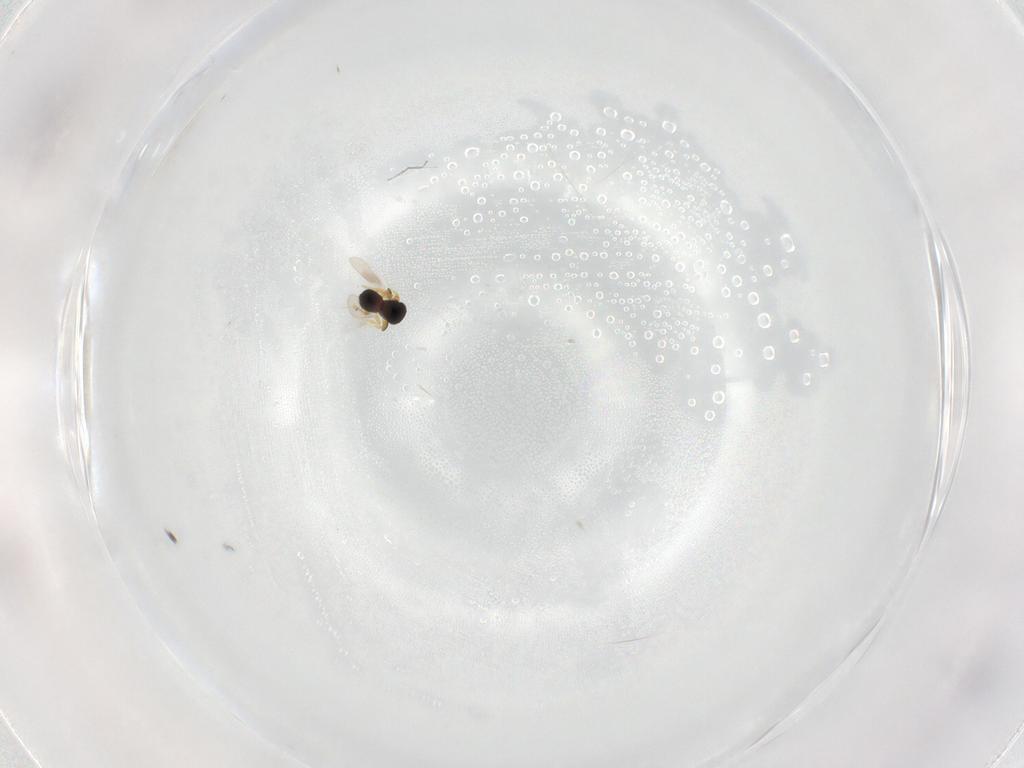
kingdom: Animalia
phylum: Arthropoda
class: Insecta
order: Hymenoptera
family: Platygastridae
